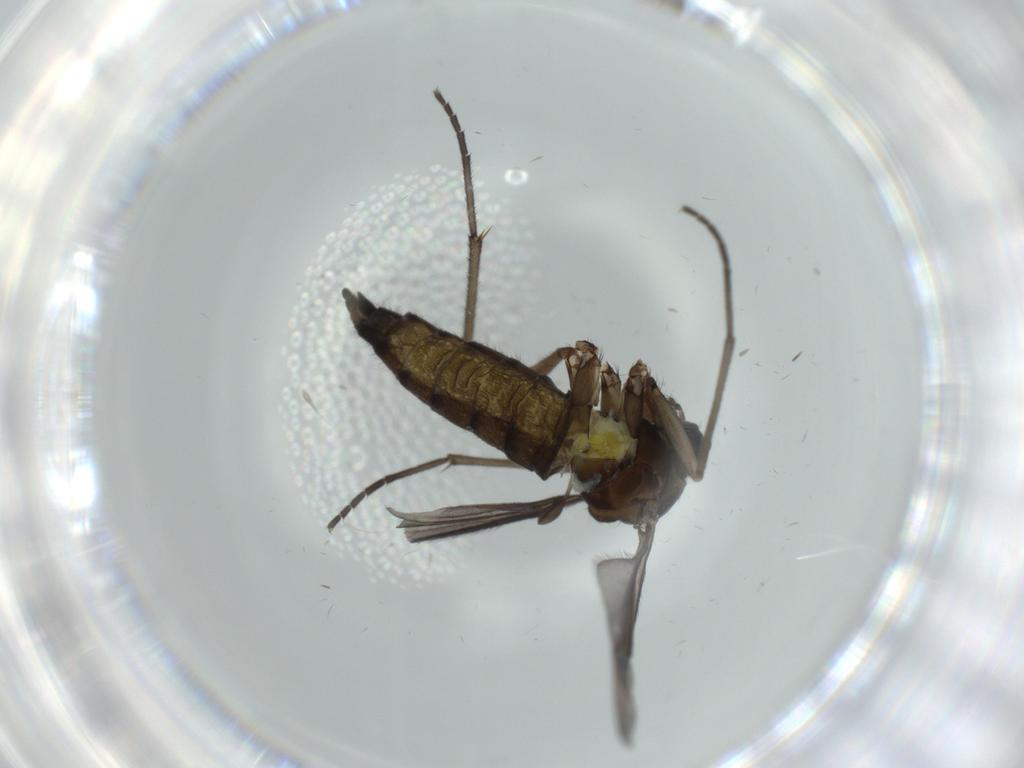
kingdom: Animalia
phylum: Arthropoda
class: Insecta
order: Diptera
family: Sciaridae
